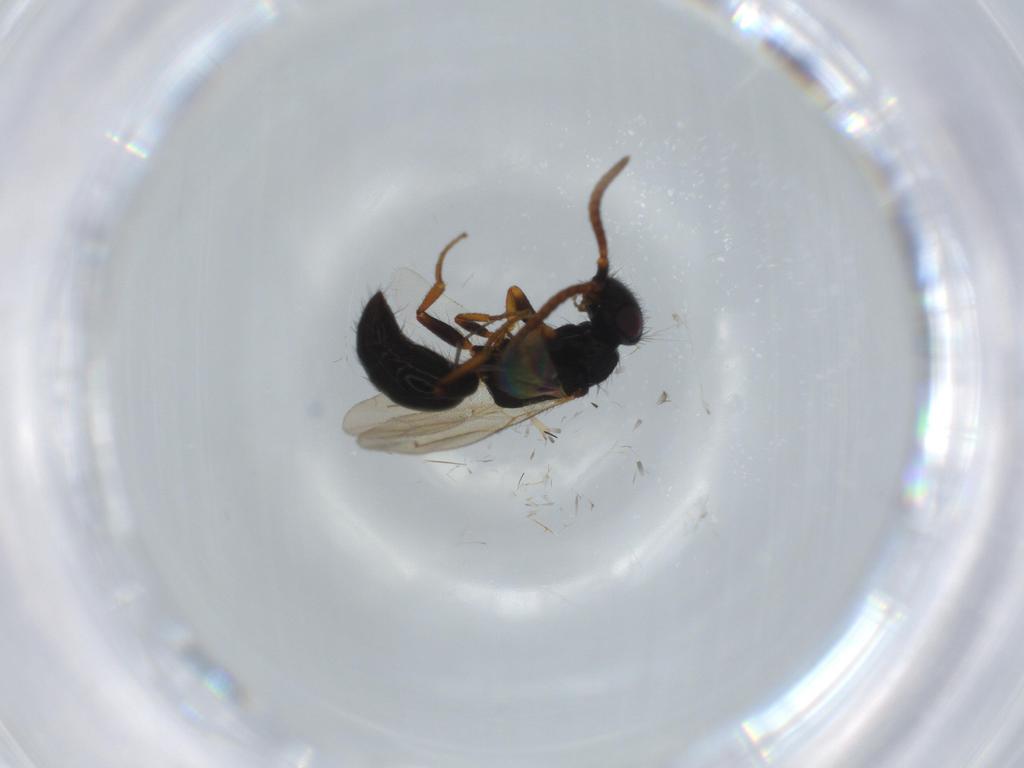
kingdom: Animalia
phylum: Arthropoda
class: Insecta
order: Hymenoptera
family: Bethylidae
